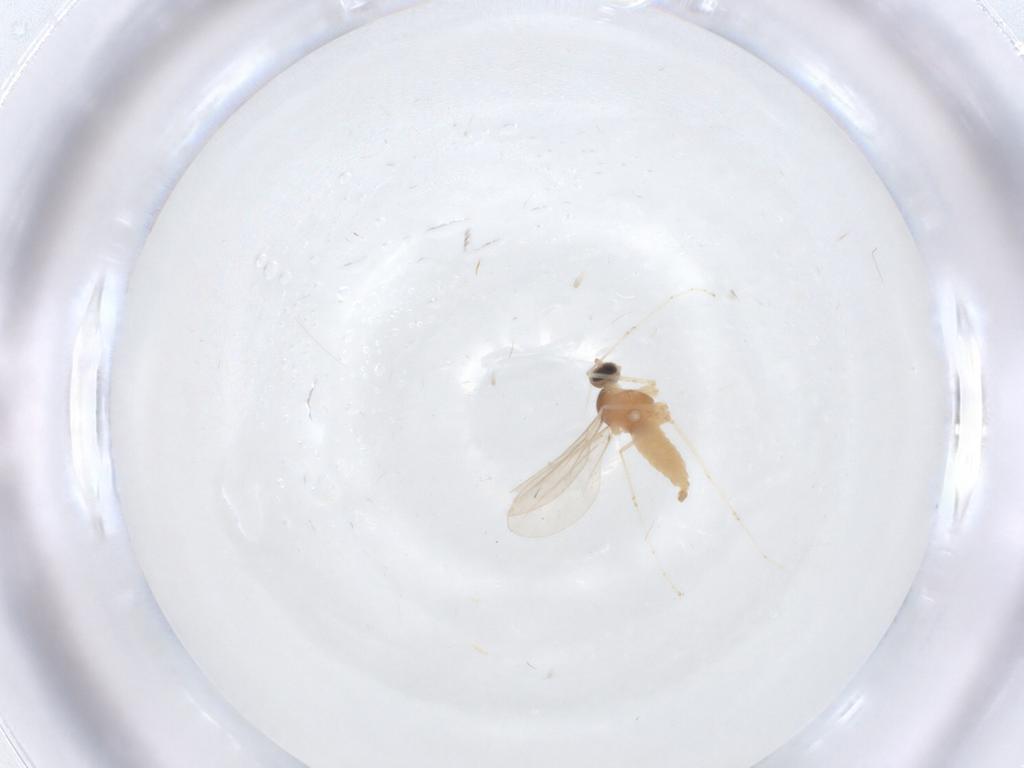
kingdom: Animalia
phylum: Arthropoda
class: Insecta
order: Diptera
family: Cecidomyiidae
